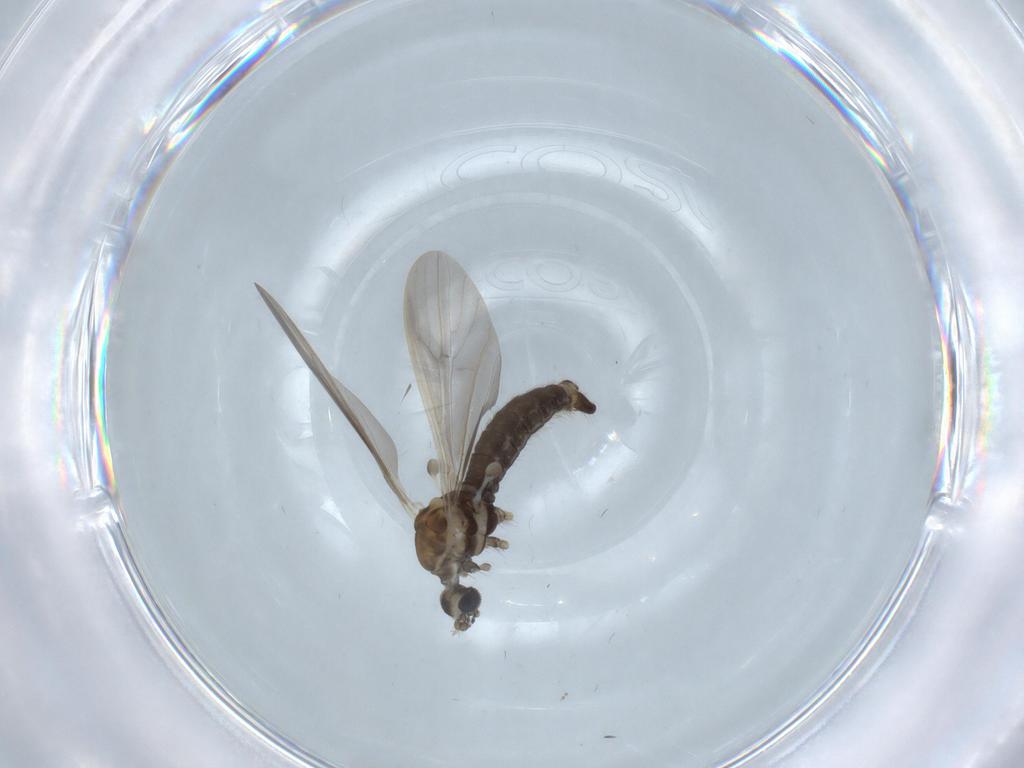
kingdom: Animalia
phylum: Arthropoda
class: Insecta
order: Diptera
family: Limoniidae
